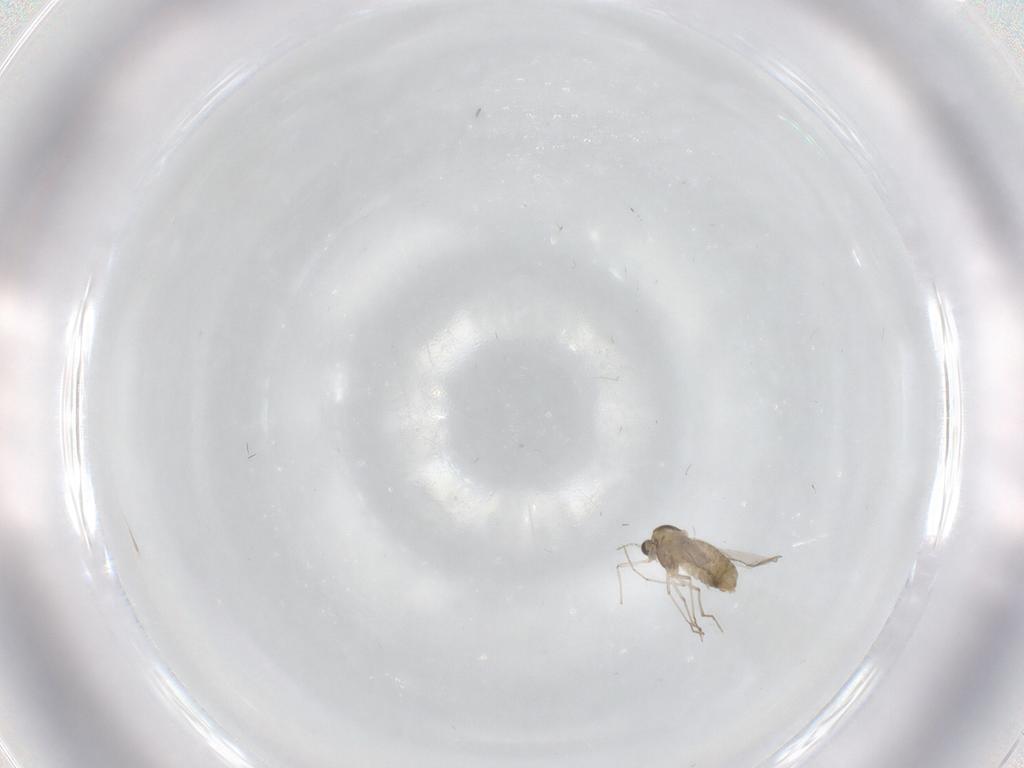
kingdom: Animalia
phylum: Arthropoda
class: Insecta
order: Diptera
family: Chironomidae
